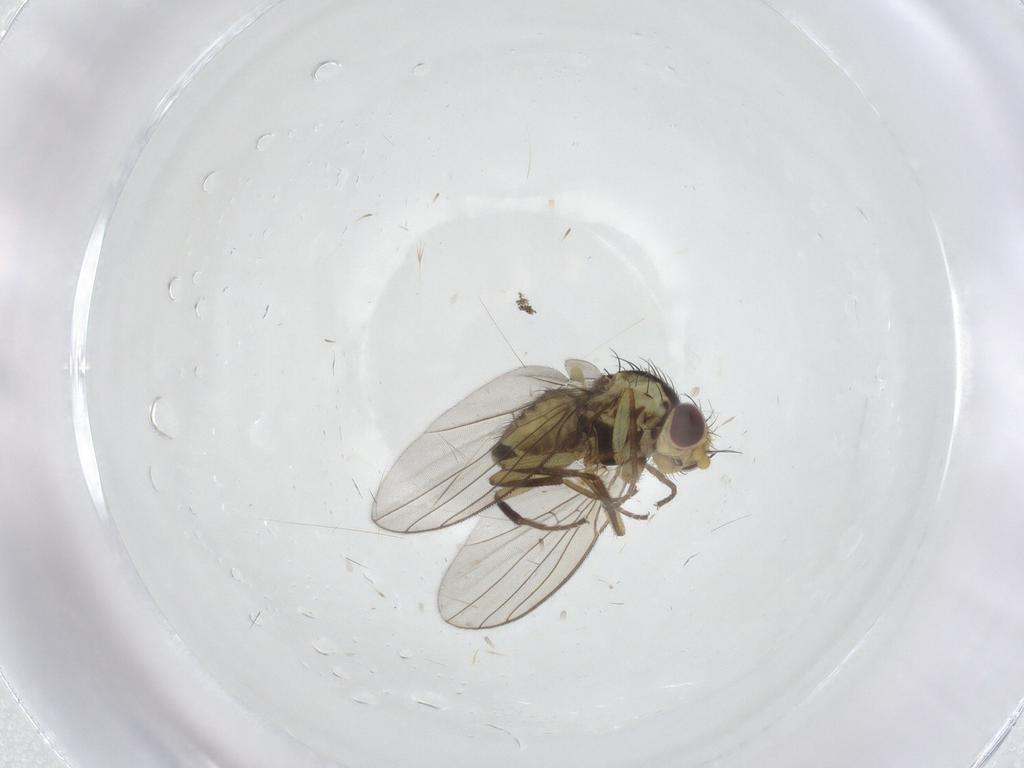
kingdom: Animalia
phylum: Arthropoda
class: Insecta
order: Diptera
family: Agromyzidae
